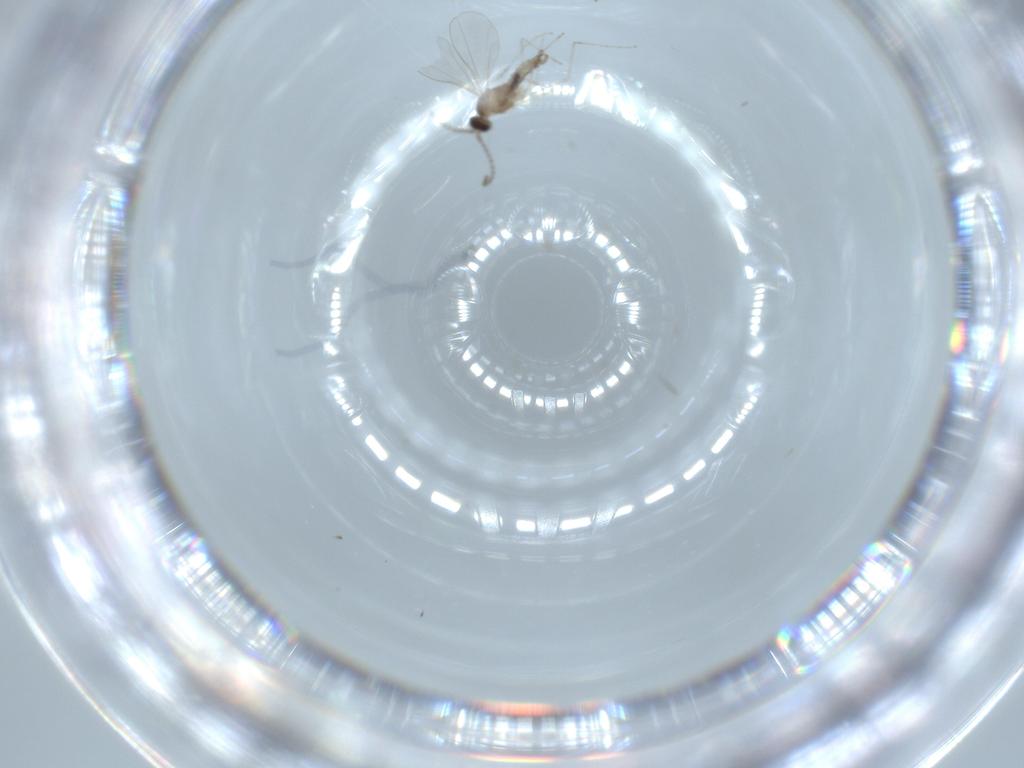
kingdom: Animalia
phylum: Arthropoda
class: Insecta
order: Diptera
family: Cecidomyiidae
